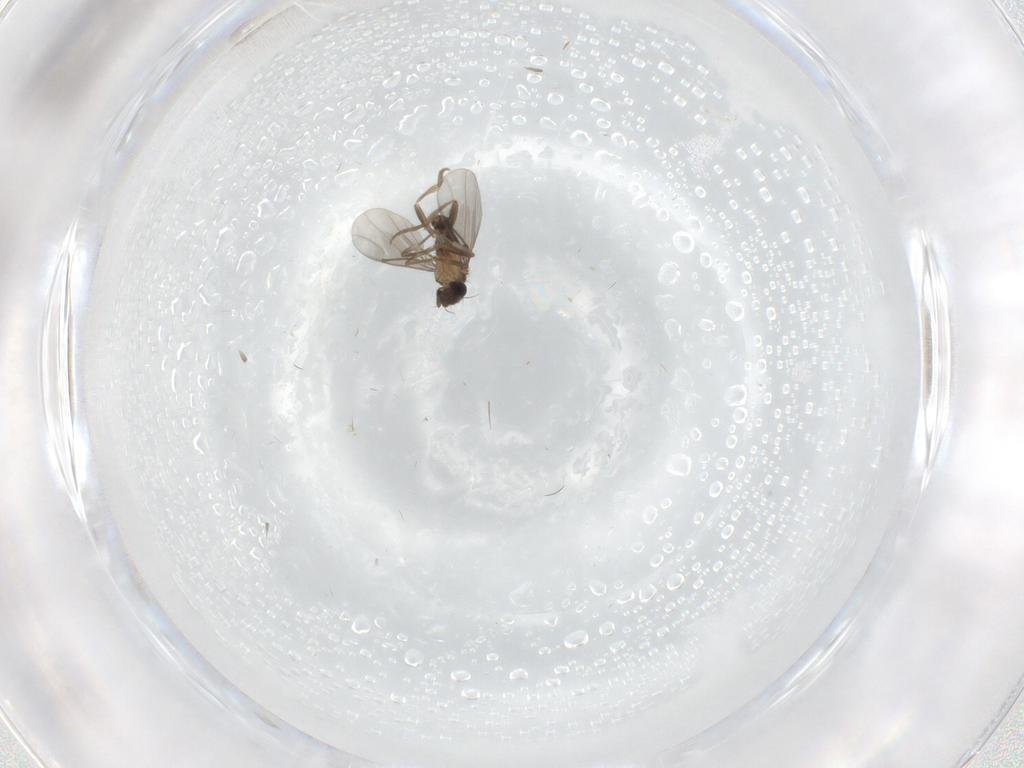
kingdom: Animalia
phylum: Arthropoda
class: Insecta
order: Diptera
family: Phoridae
